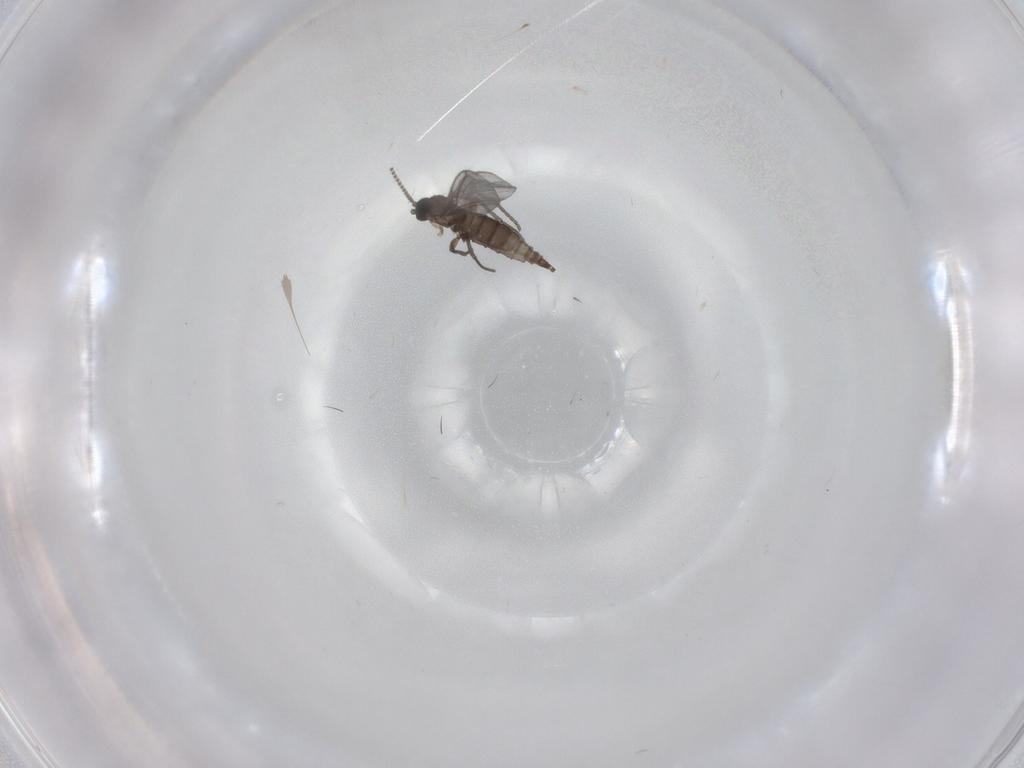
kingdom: Animalia
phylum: Arthropoda
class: Insecta
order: Diptera
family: Sciaridae
